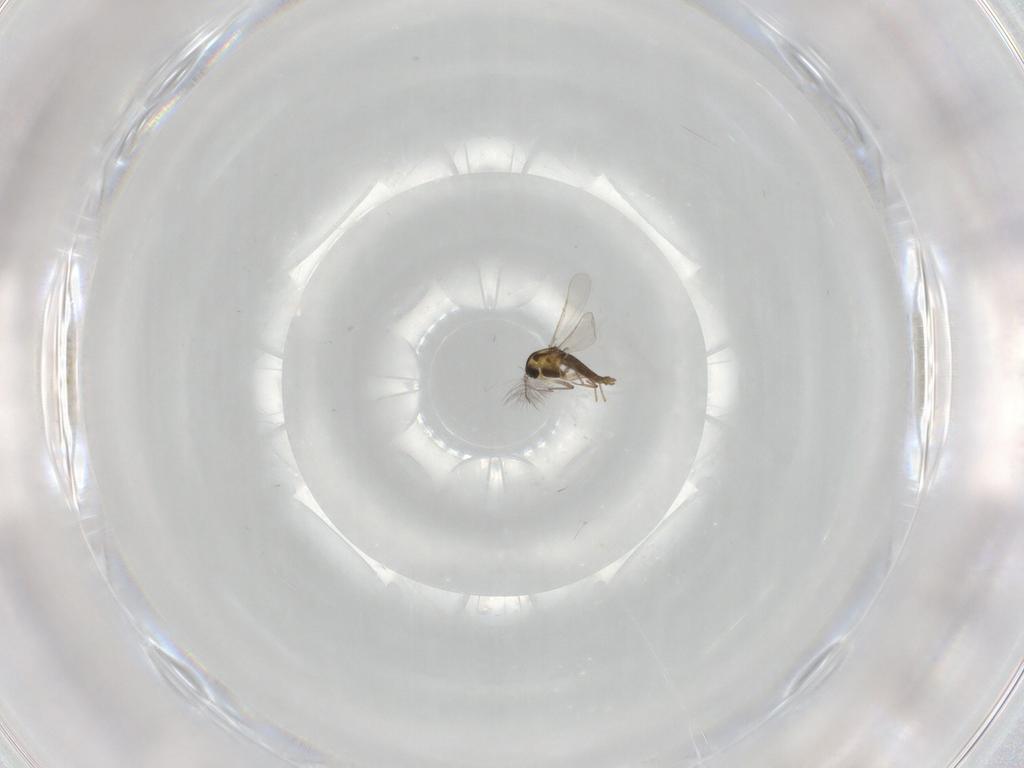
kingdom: Animalia
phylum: Arthropoda
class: Insecta
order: Diptera
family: Chironomidae
